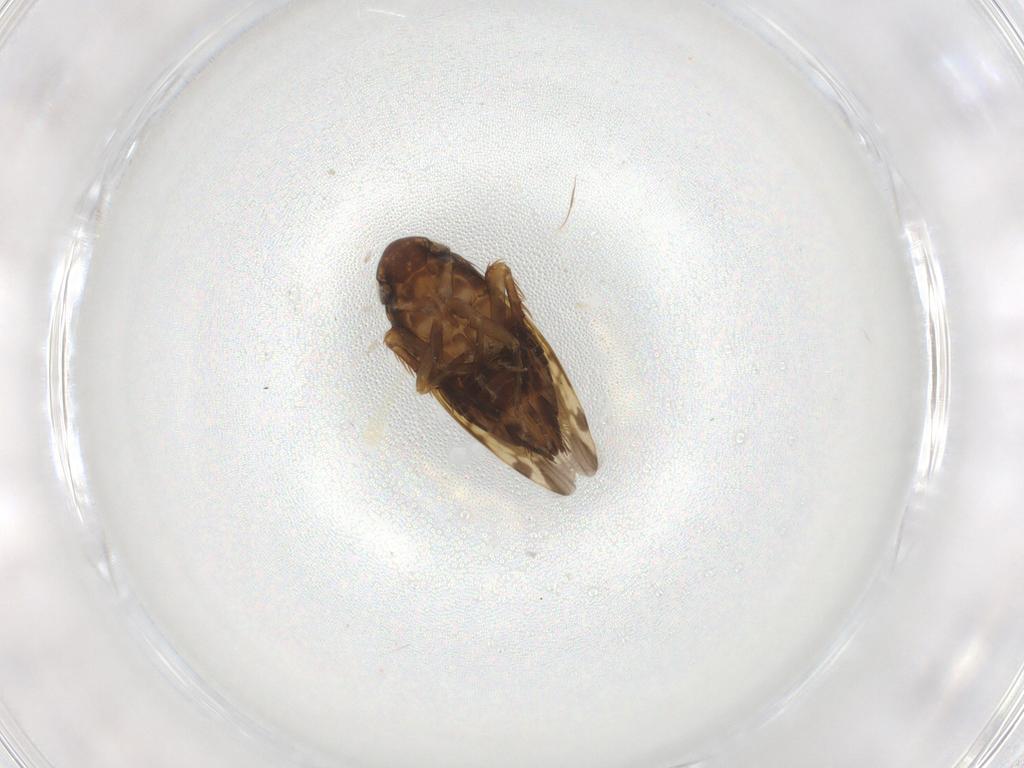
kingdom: Animalia
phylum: Arthropoda
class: Insecta
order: Hemiptera
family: Cicadellidae
